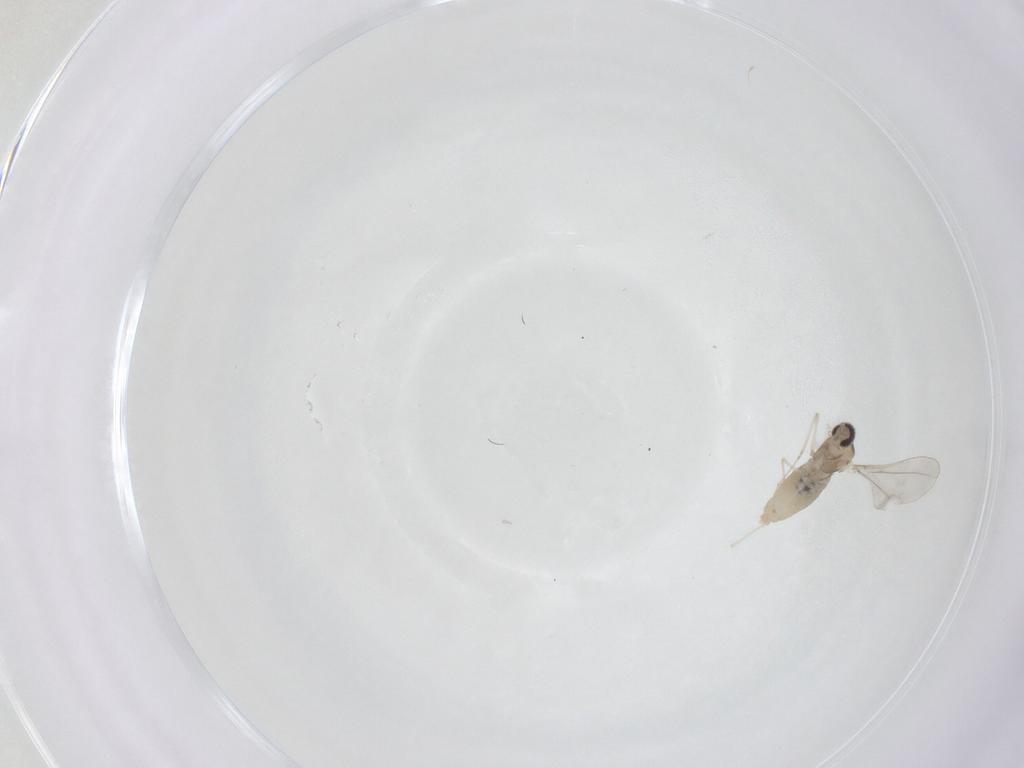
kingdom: Animalia
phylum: Arthropoda
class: Insecta
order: Diptera
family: Cecidomyiidae
